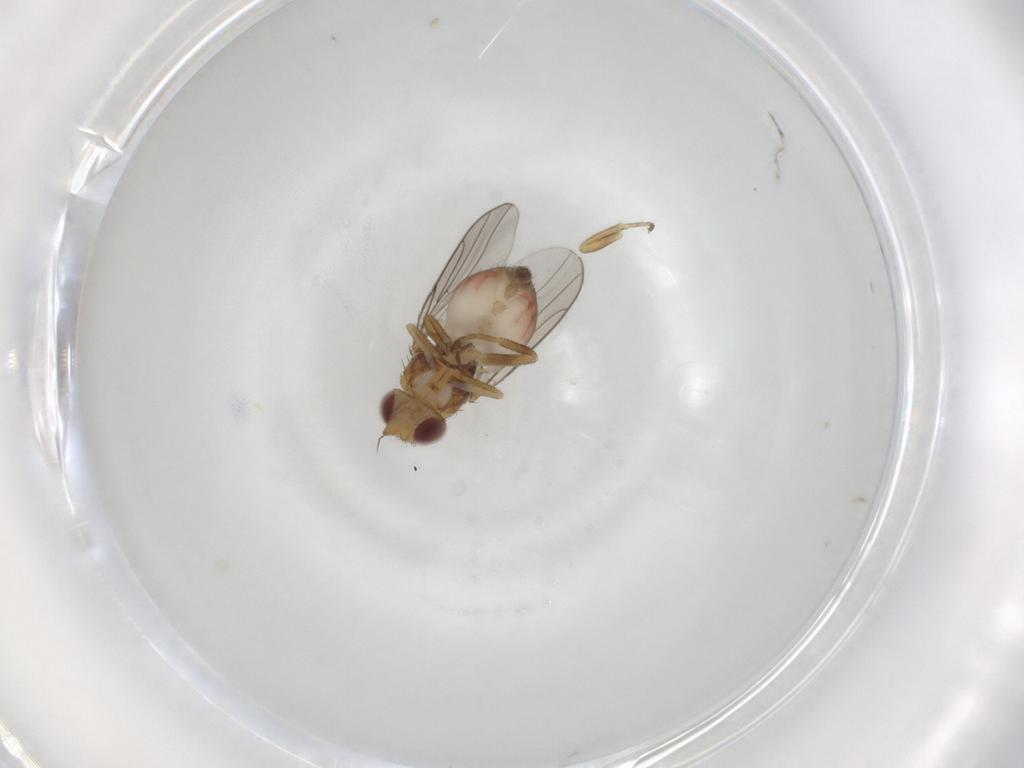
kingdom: Animalia
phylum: Arthropoda
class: Insecta
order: Diptera
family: Chloropidae
